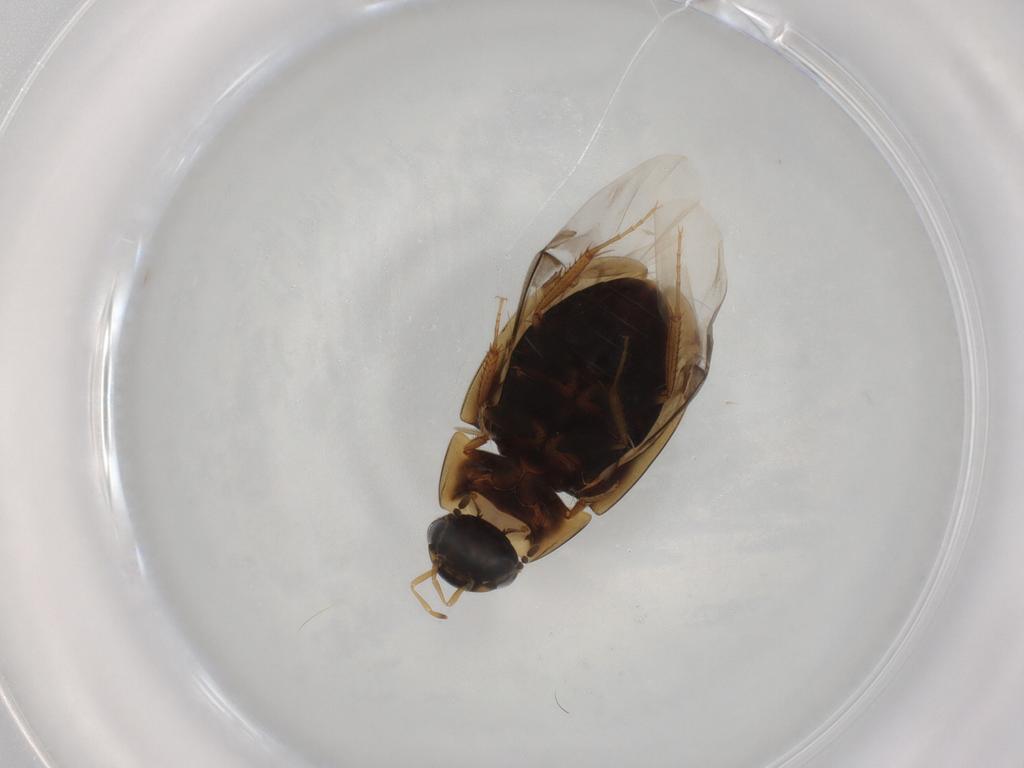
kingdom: Animalia
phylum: Arthropoda
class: Insecta
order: Coleoptera
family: Hydrophilidae
